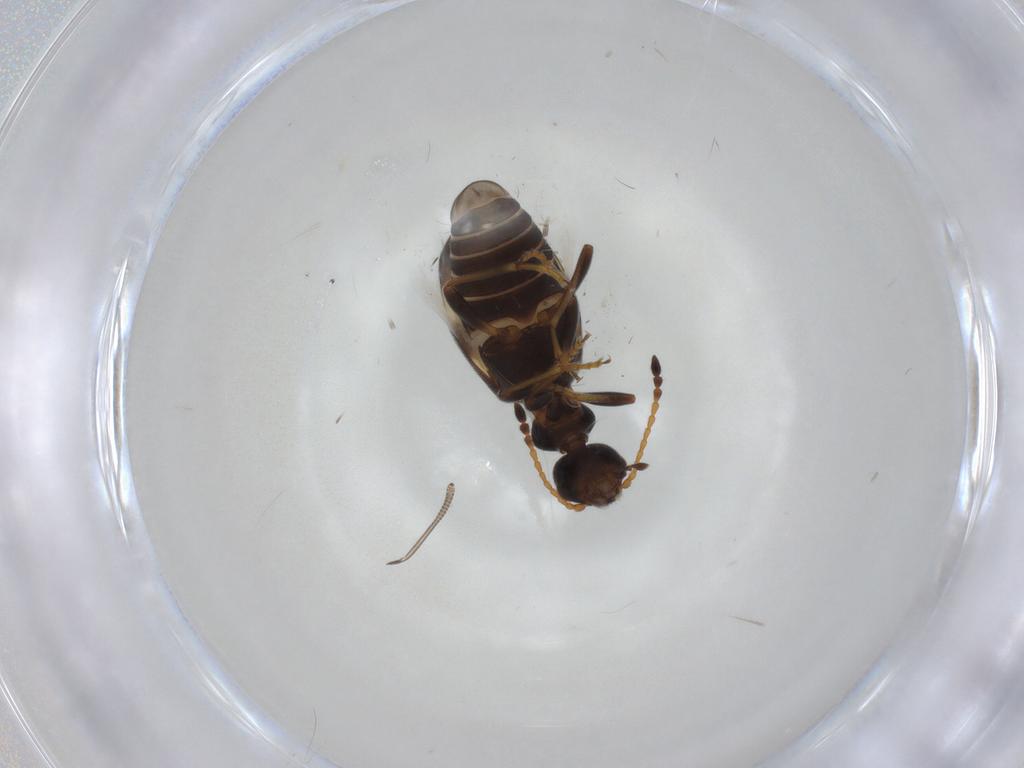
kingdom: Animalia
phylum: Arthropoda
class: Insecta
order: Coleoptera
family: Anthicidae
